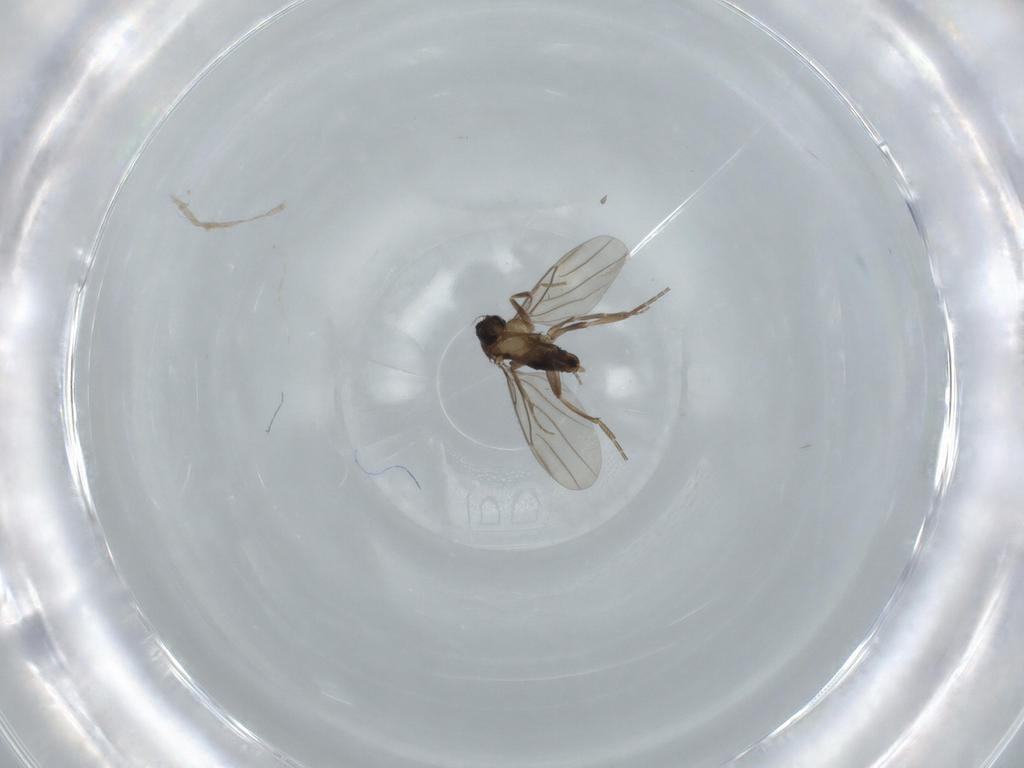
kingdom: Animalia
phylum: Arthropoda
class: Insecta
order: Diptera
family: Phoridae
